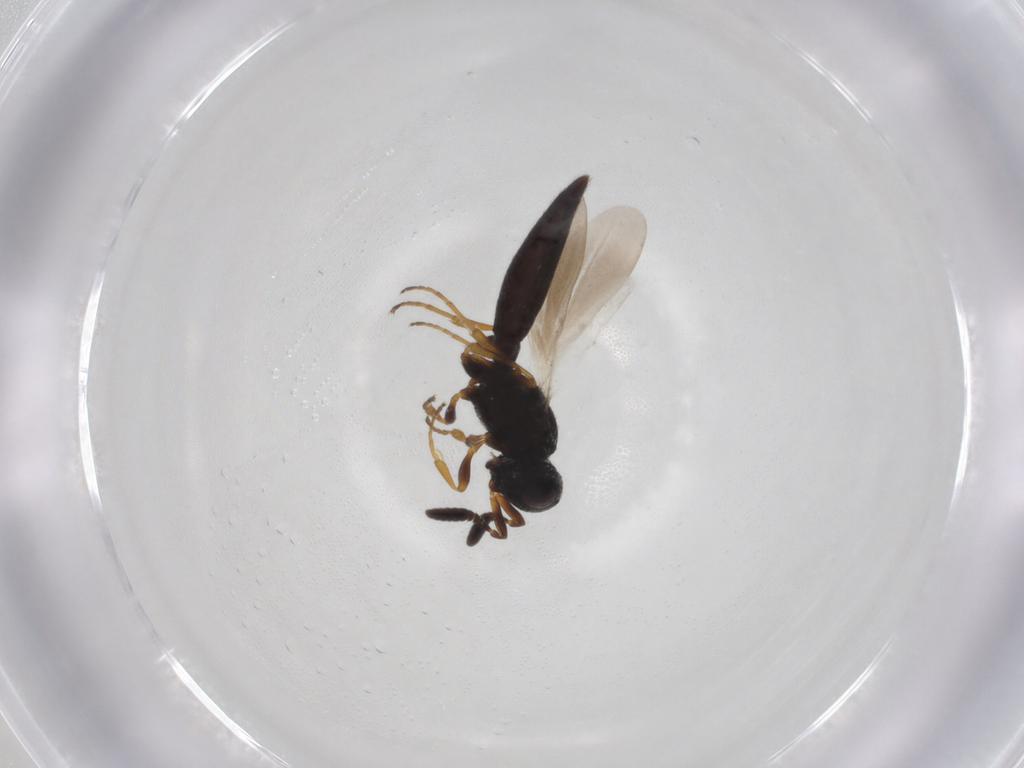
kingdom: Animalia
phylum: Arthropoda
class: Insecta
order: Hymenoptera
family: Scelionidae
